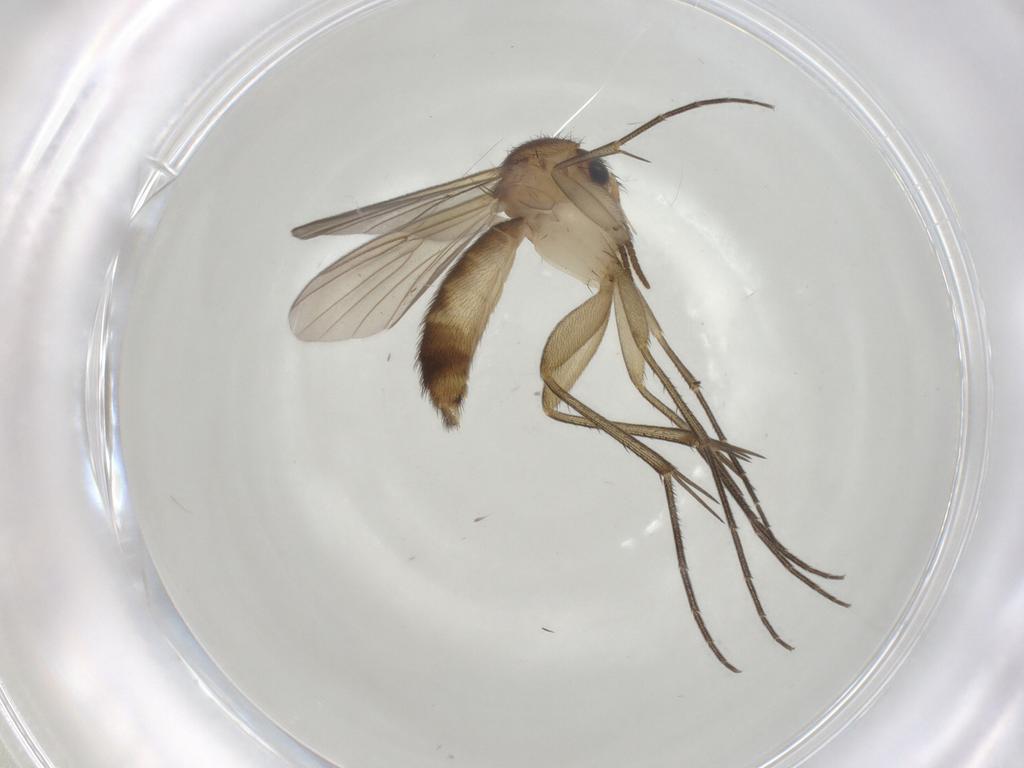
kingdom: Animalia
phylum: Arthropoda
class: Insecta
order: Diptera
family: Mycetophilidae
